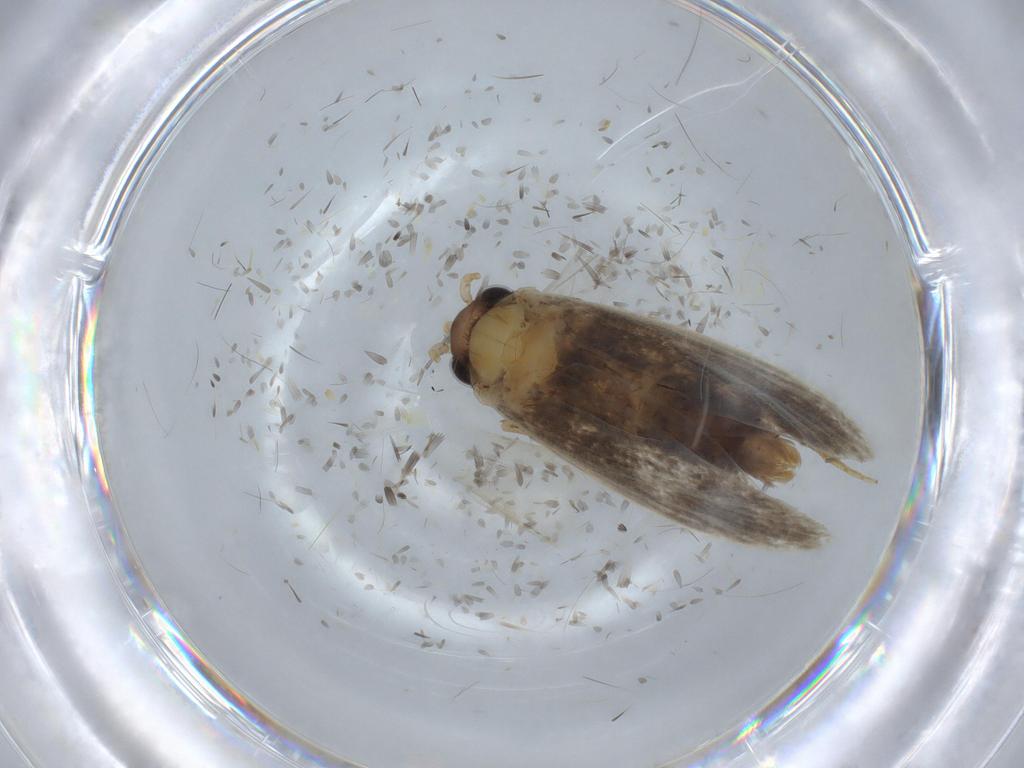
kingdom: Animalia
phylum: Arthropoda
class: Insecta
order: Lepidoptera
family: Tineidae
